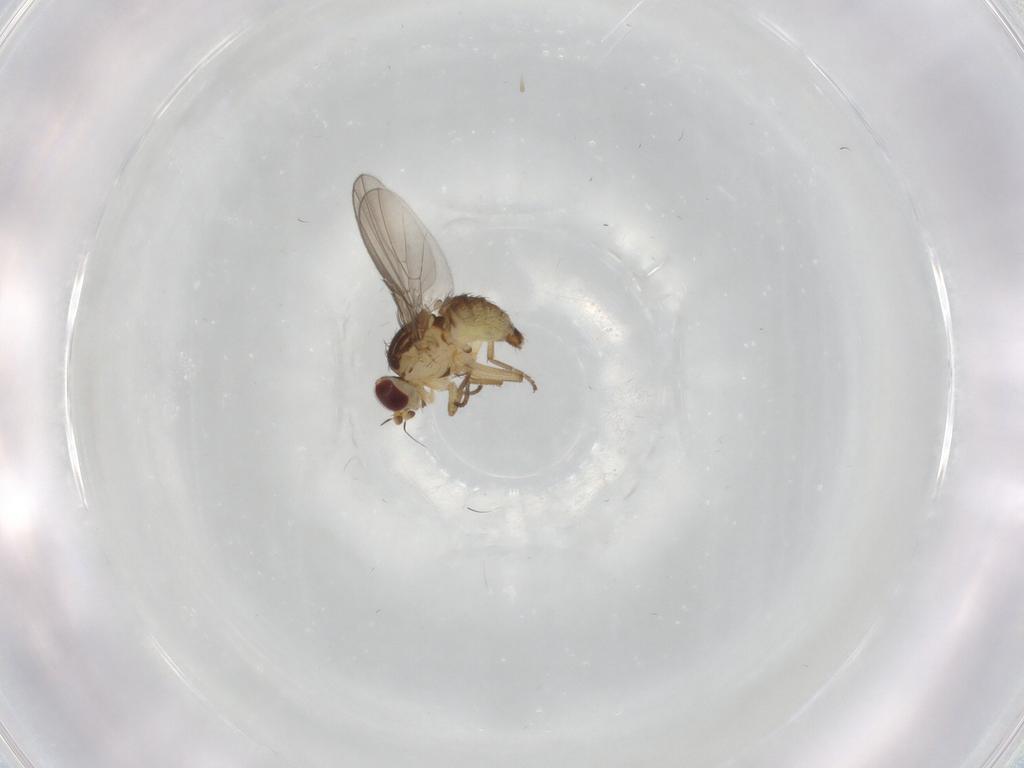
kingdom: Animalia
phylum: Arthropoda
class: Insecta
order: Diptera
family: Agromyzidae
